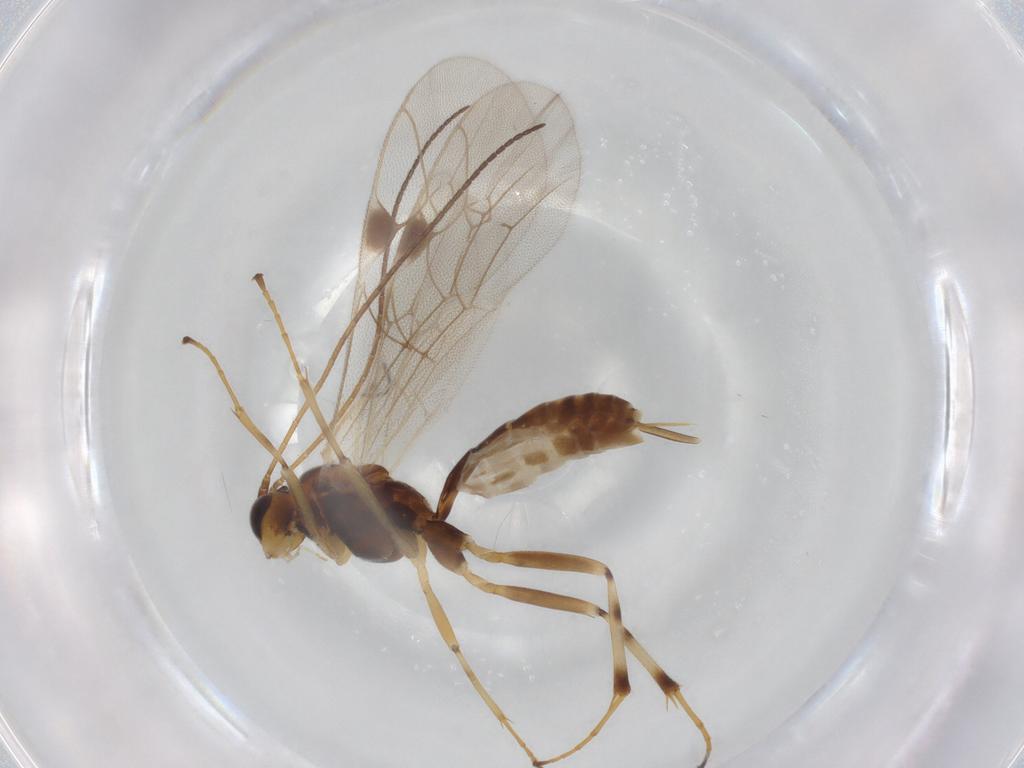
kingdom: Animalia
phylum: Arthropoda
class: Insecta
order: Hymenoptera
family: Ichneumonidae
